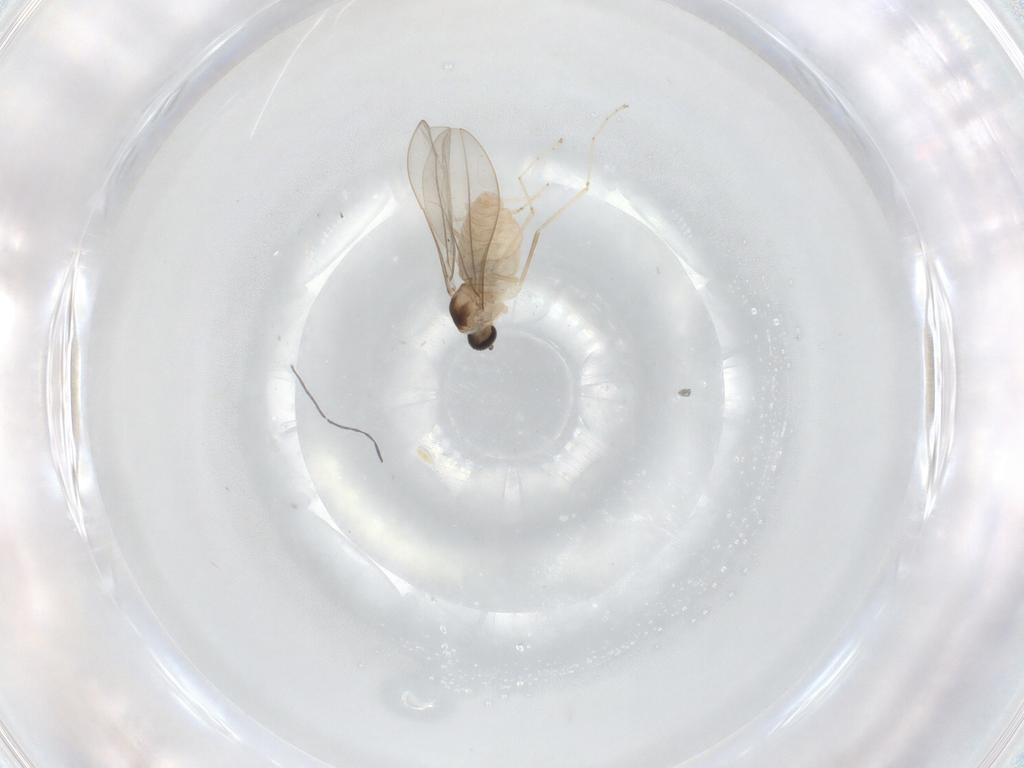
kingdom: Animalia
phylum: Arthropoda
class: Insecta
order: Diptera
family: Cecidomyiidae
